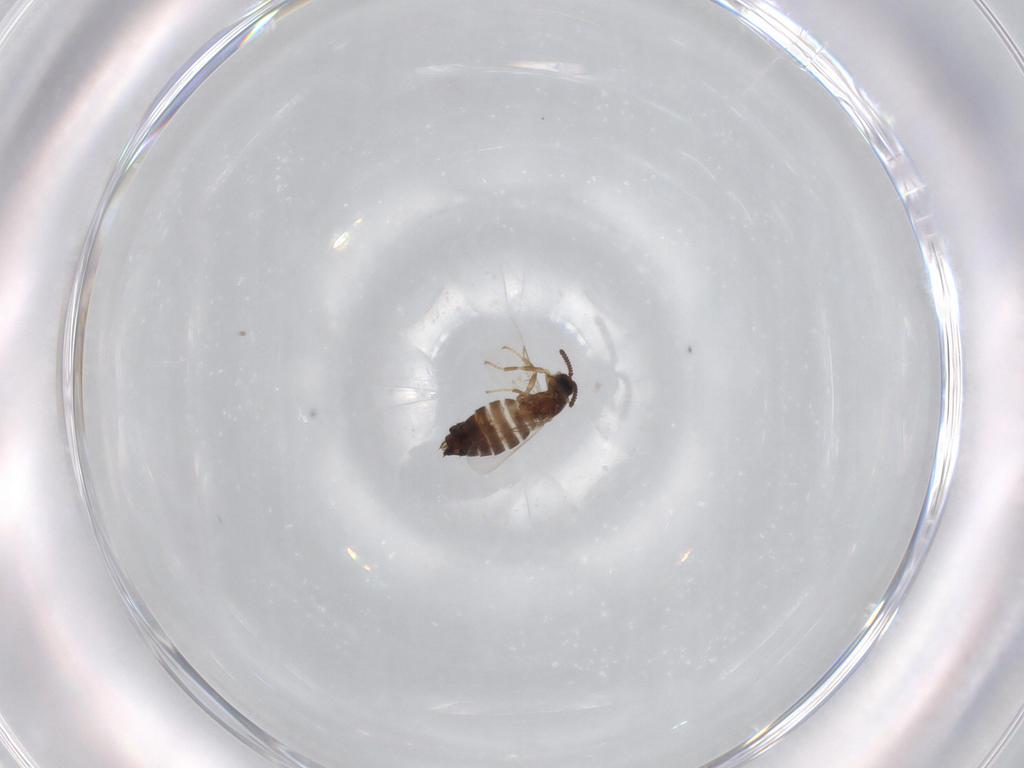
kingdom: Animalia
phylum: Arthropoda
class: Insecta
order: Diptera
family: Scatopsidae
